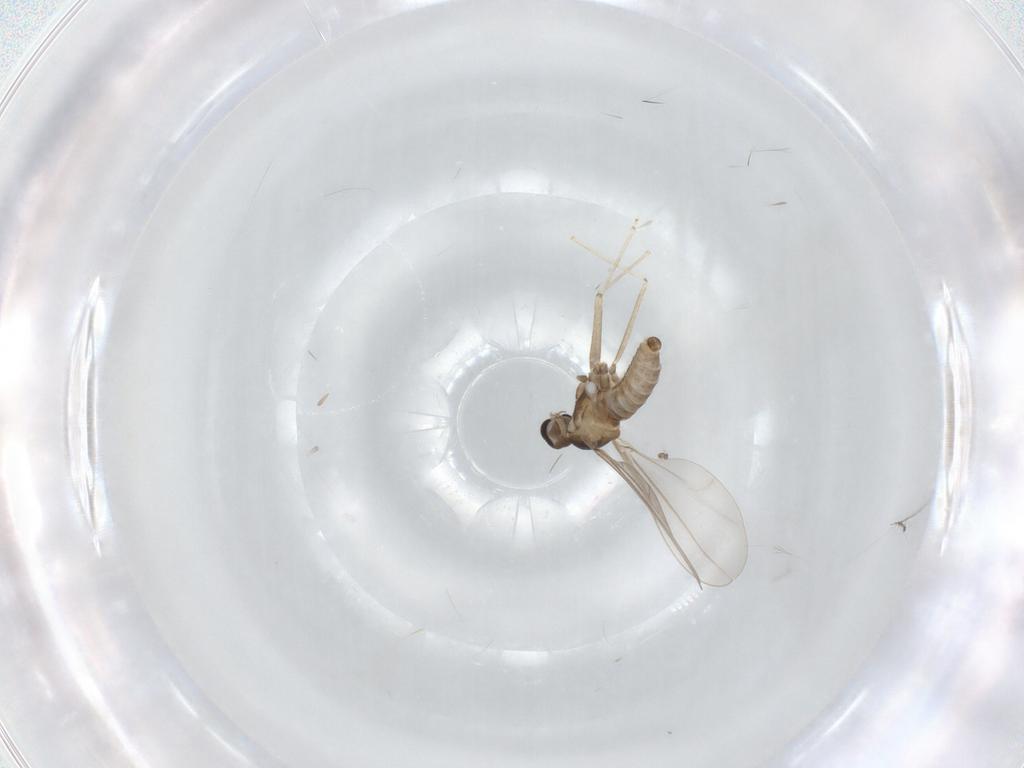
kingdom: Animalia
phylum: Arthropoda
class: Insecta
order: Diptera
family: Cecidomyiidae
